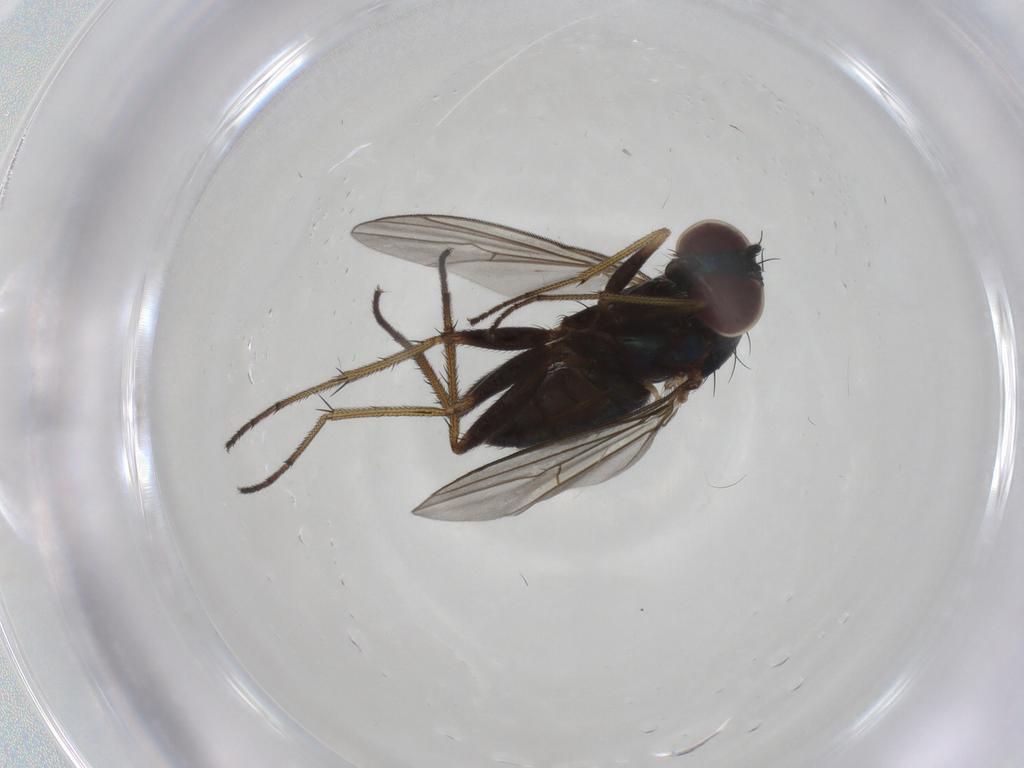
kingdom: Animalia
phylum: Arthropoda
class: Insecta
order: Diptera
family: Dolichopodidae
